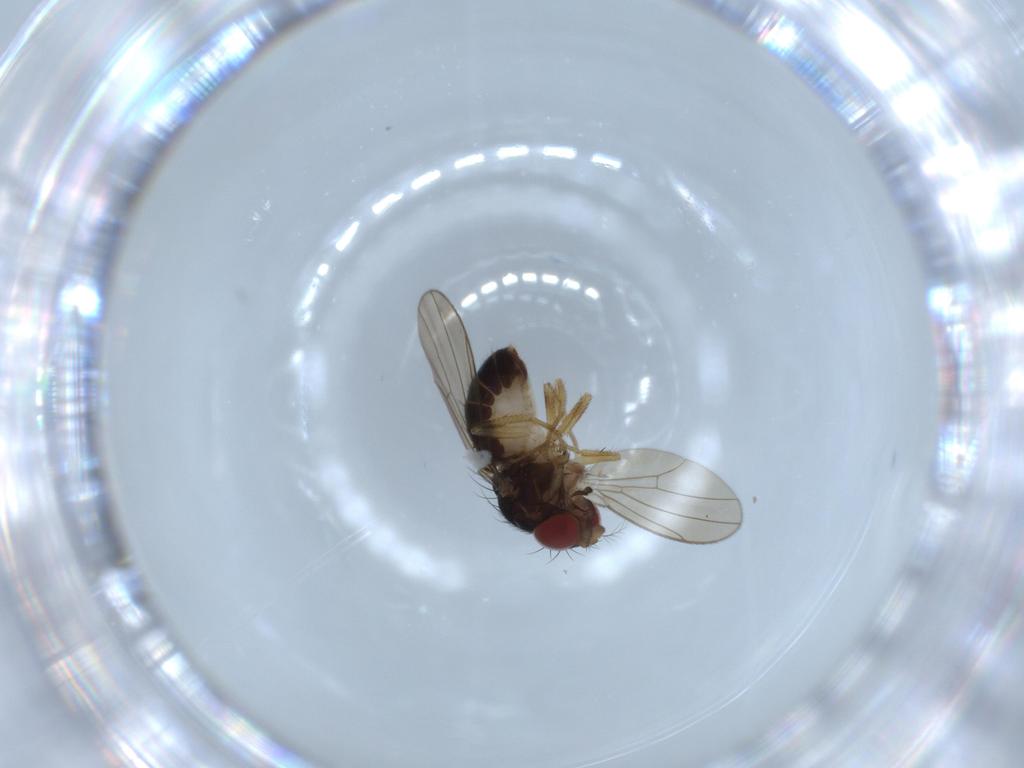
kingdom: Animalia
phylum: Arthropoda
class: Insecta
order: Diptera
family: Drosophilidae
